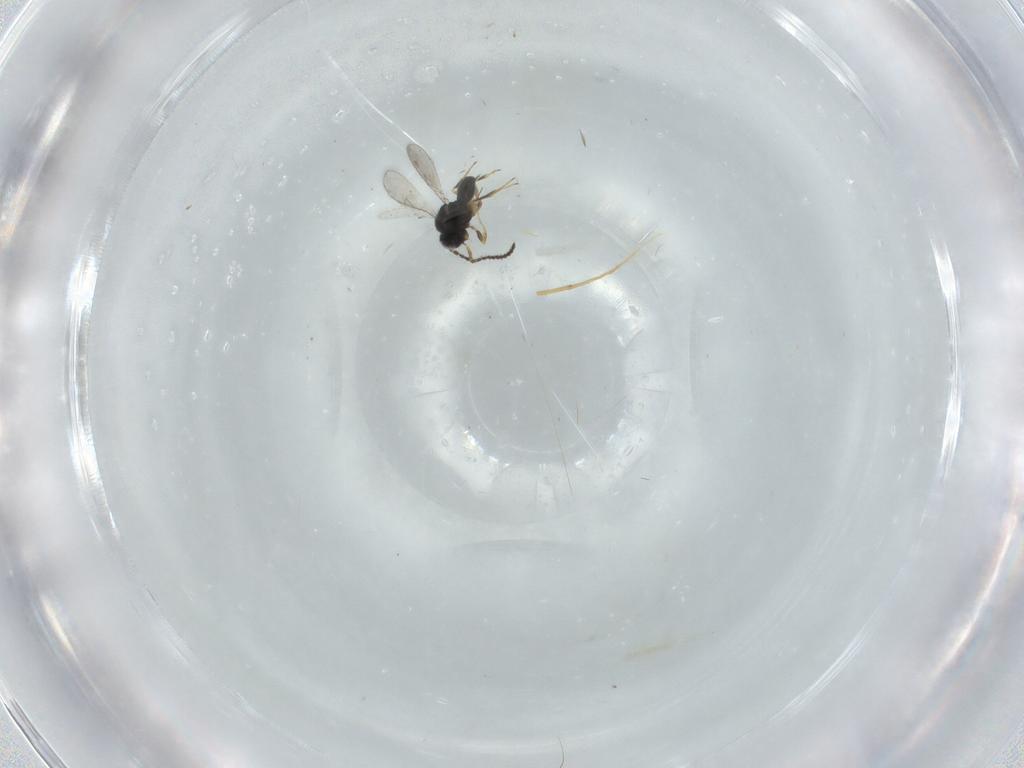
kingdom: Animalia
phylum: Arthropoda
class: Insecta
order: Hymenoptera
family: Scelionidae
